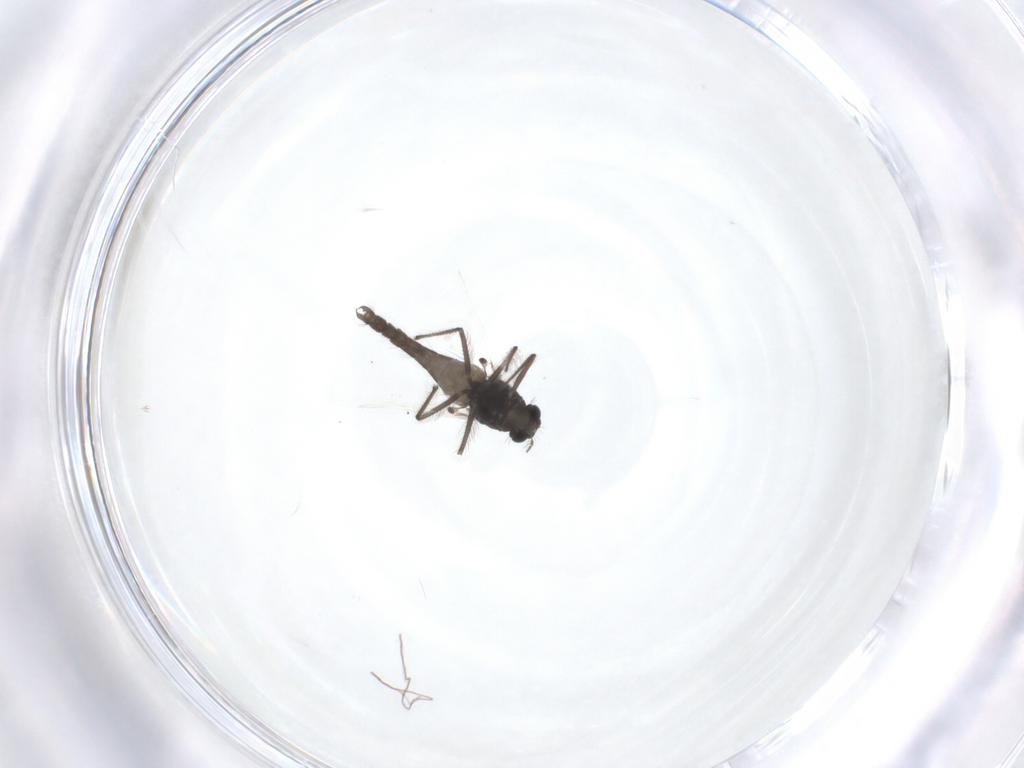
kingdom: Animalia
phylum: Arthropoda
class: Insecta
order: Diptera
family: Chironomidae
